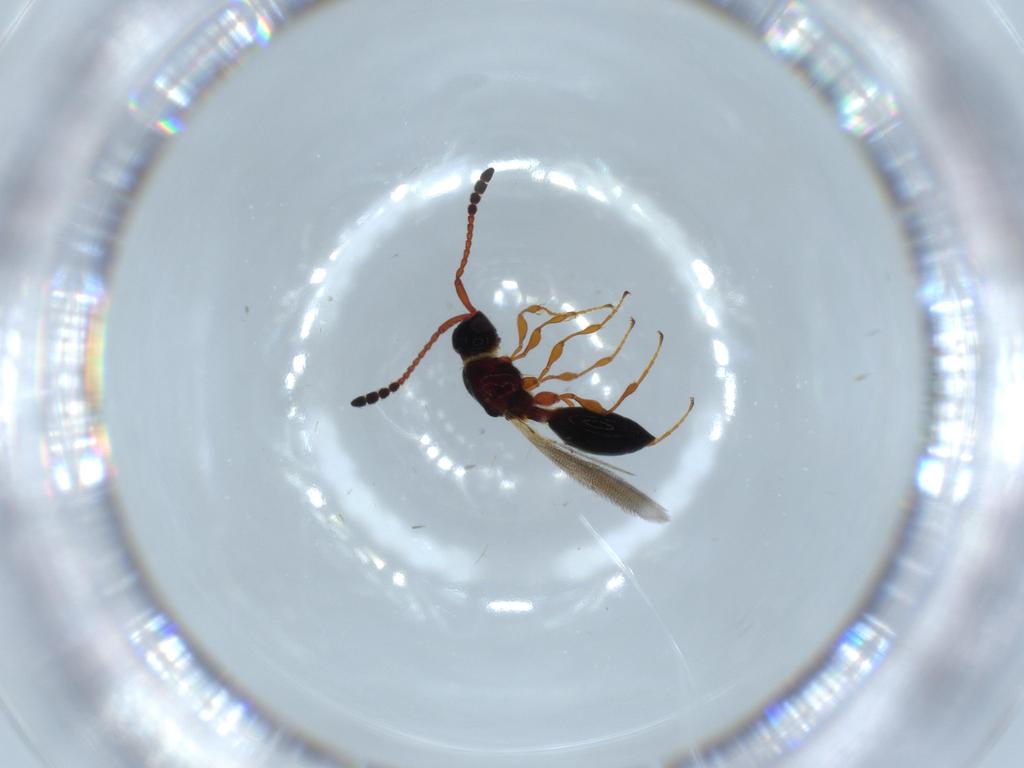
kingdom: Animalia
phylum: Arthropoda
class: Insecta
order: Hymenoptera
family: Diapriidae
